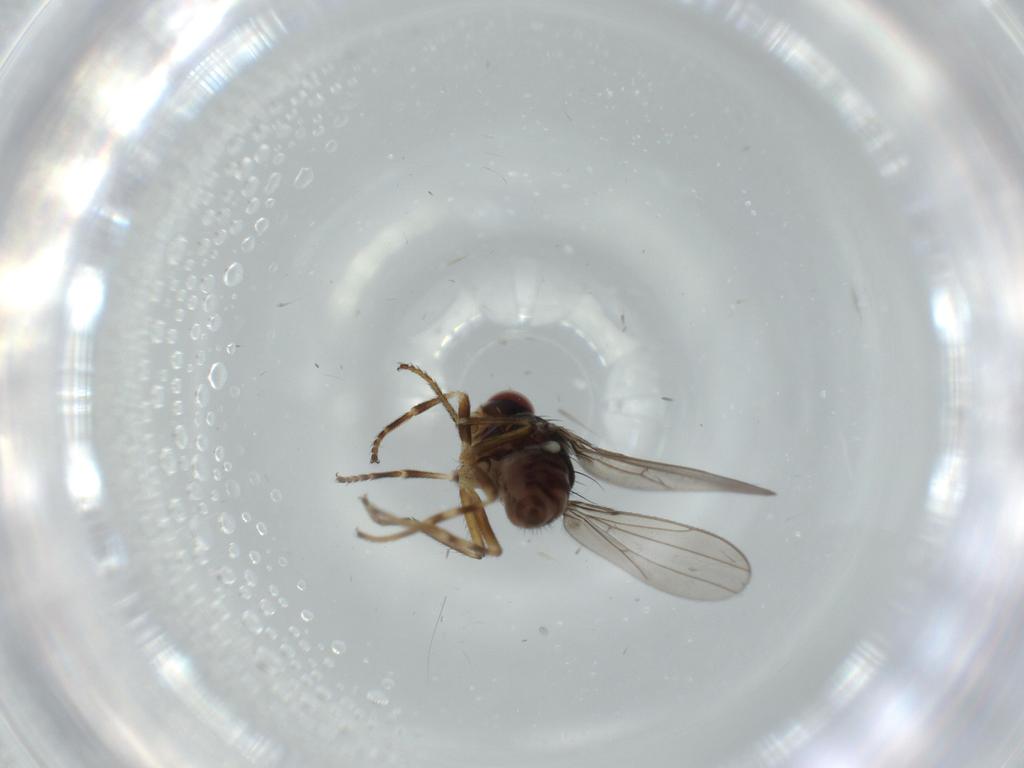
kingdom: Animalia
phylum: Arthropoda
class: Insecta
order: Diptera
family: Ephydridae
